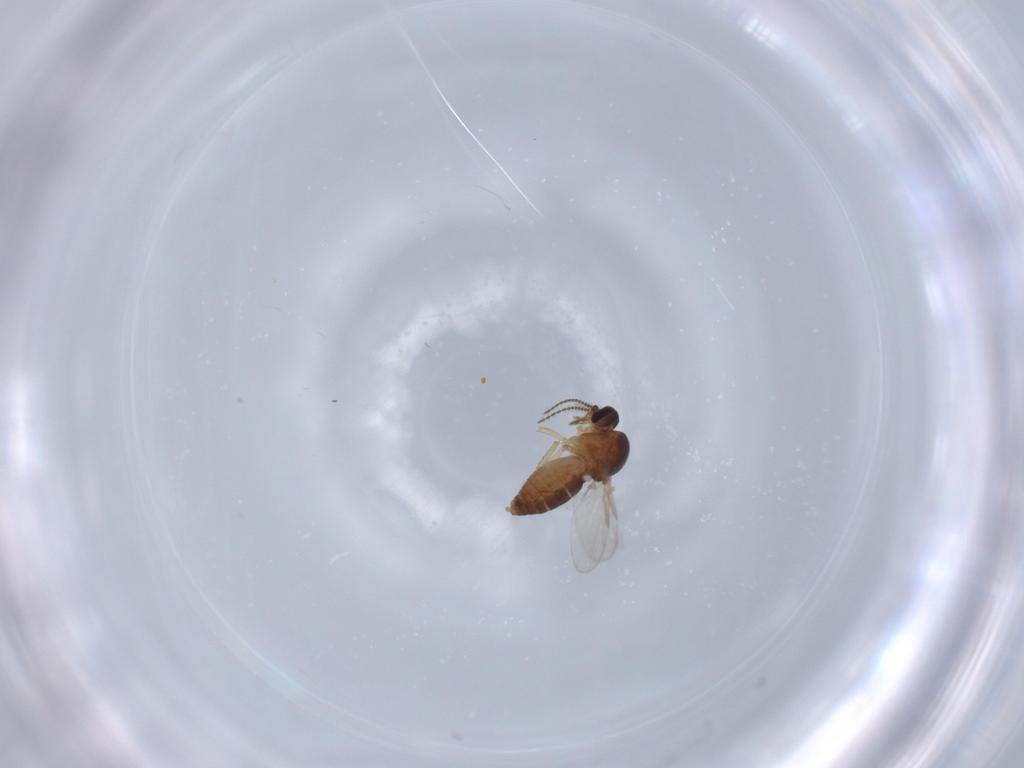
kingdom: Animalia
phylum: Arthropoda
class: Insecta
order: Diptera
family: Ceratopogonidae
